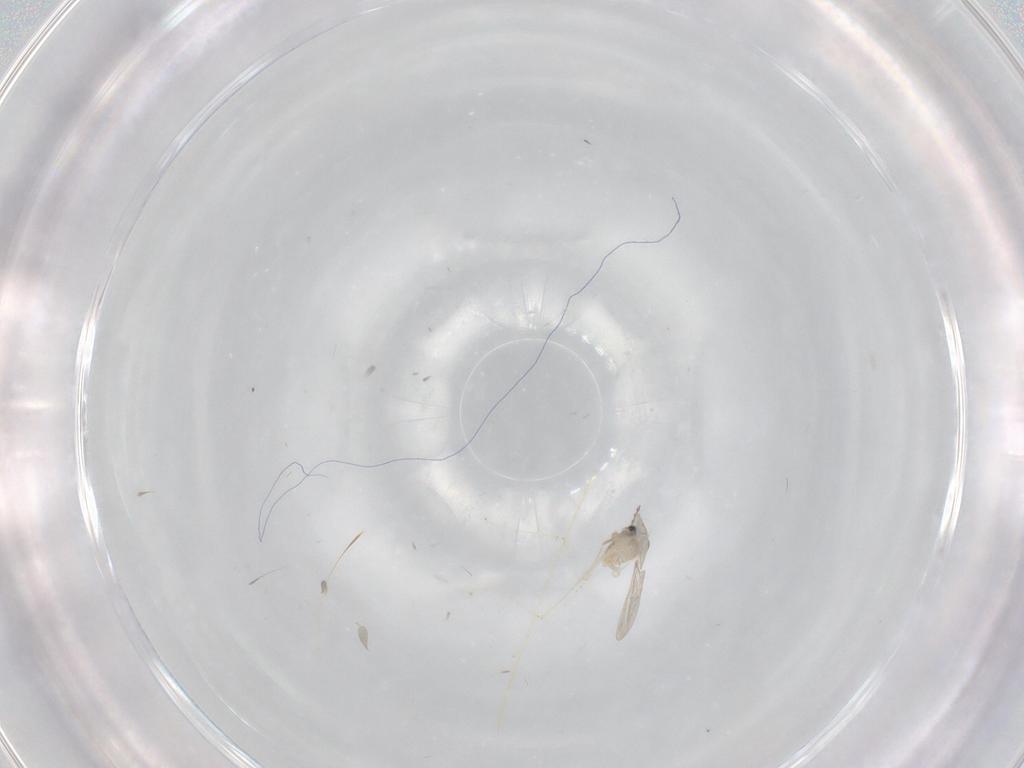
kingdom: Animalia
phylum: Arthropoda
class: Insecta
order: Diptera
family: Cecidomyiidae
